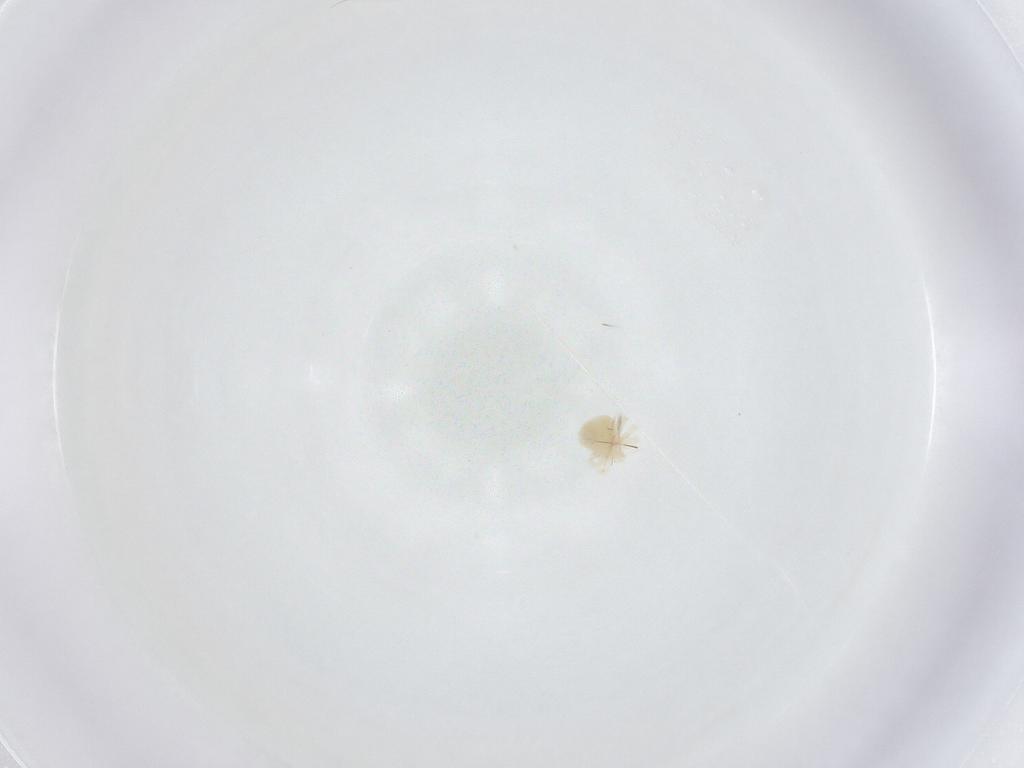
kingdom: Animalia
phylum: Arthropoda
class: Arachnida
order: Trombidiformes
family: Anystidae
